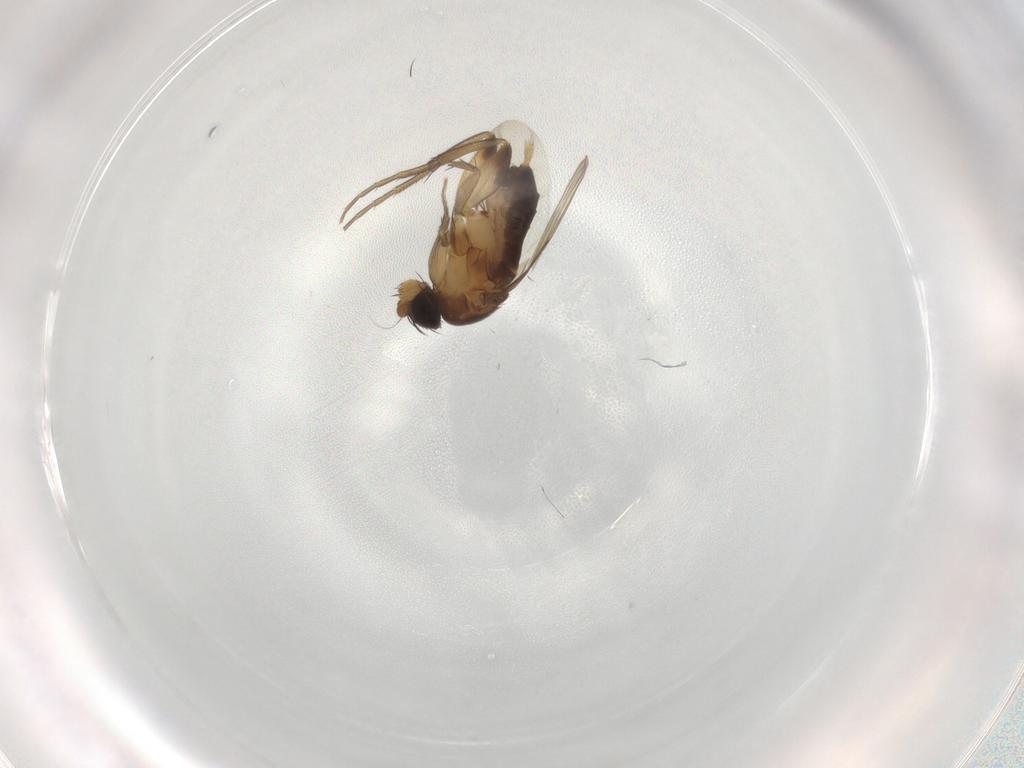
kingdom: Animalia
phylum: Arthropoda
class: Insecta
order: Diptera
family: Phoridae
